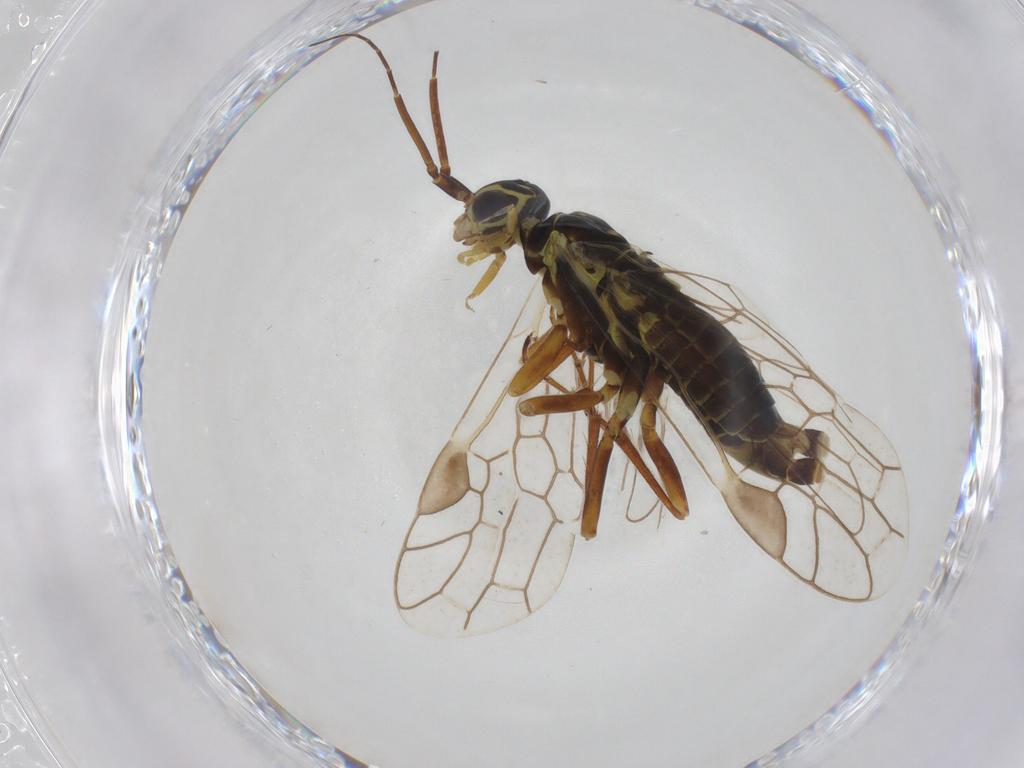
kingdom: Animalia
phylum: Arthropoda
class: Insecta
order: Hymenoptera
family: Xyelidae
